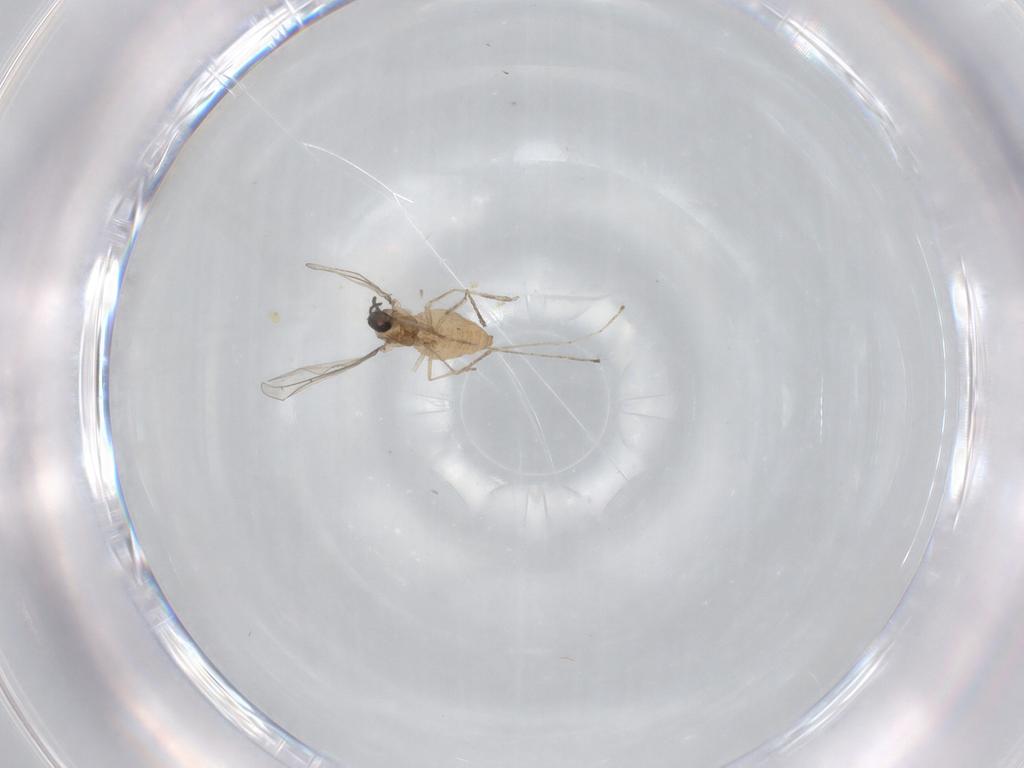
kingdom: Animalia
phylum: Arthropoda
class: Insecta
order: Diptera
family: Cecidomyiidae
